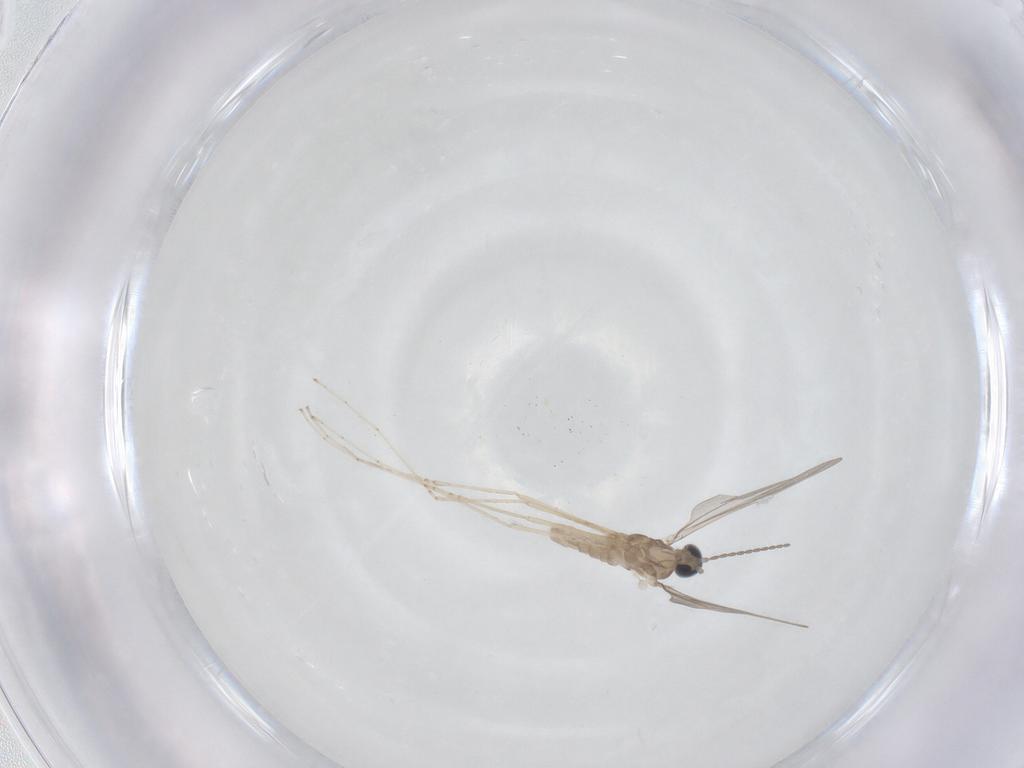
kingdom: Animalia
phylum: Arthropoda
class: Insecta
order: Diptera
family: Cecidomyiidae
